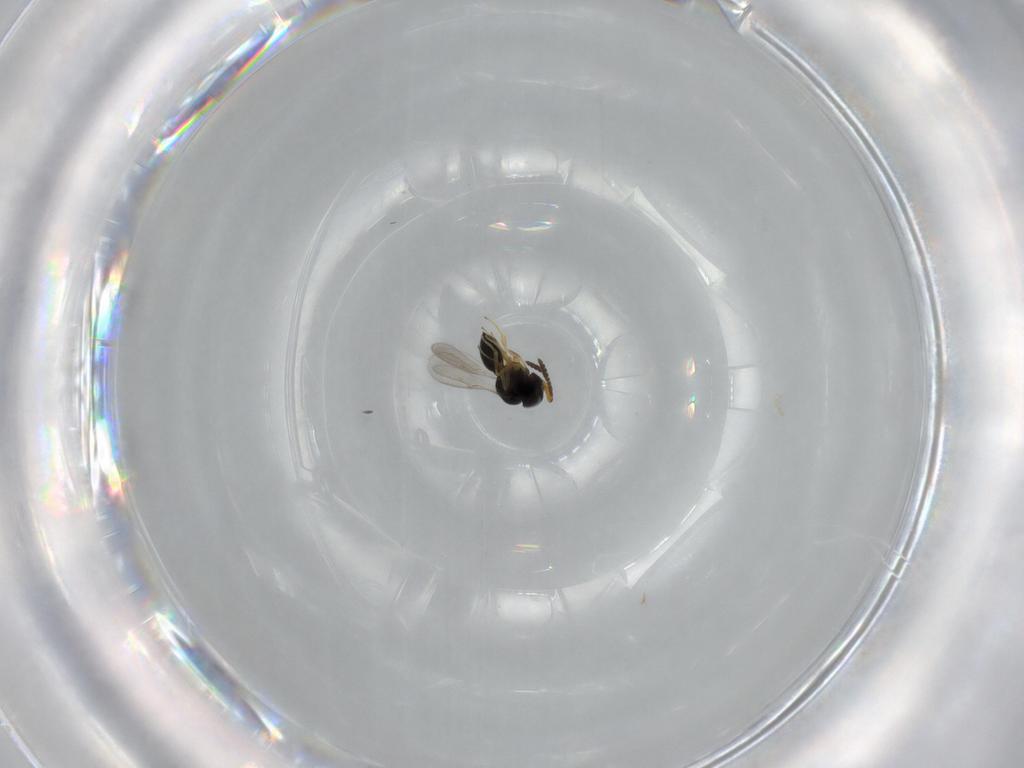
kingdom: Animalia
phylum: Arthropoda
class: Insecta
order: Hymenoptera
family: Scelionidae
